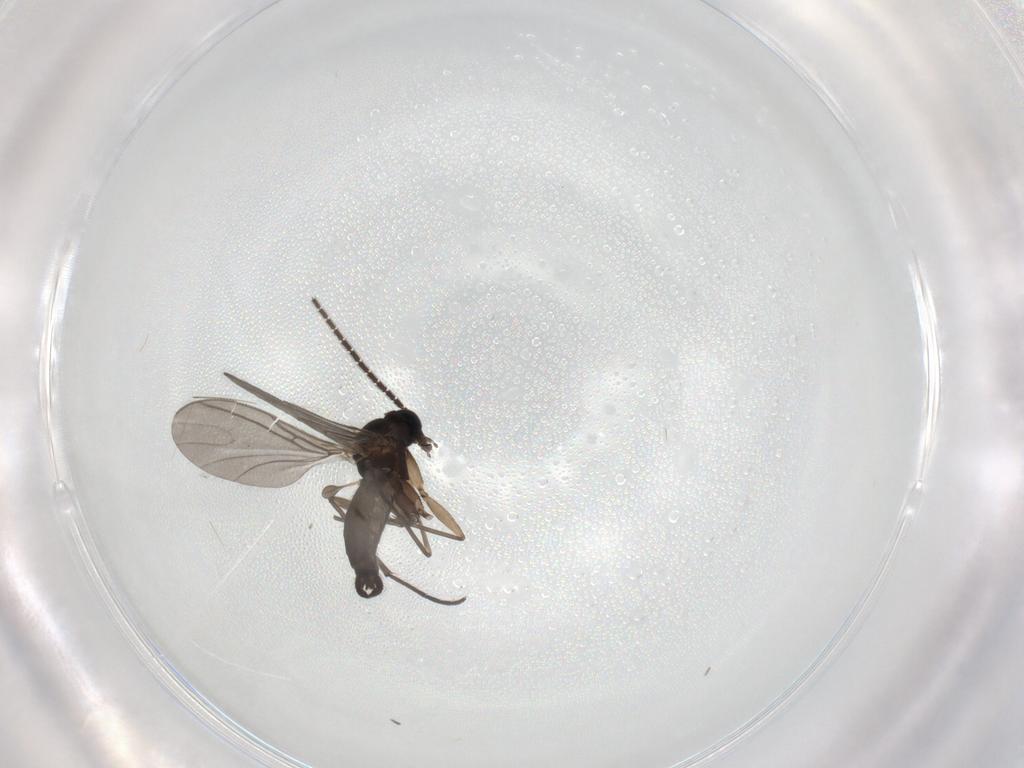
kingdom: Animalia
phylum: Arthropoda
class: Insecta
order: Diptera
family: Sciaridae
